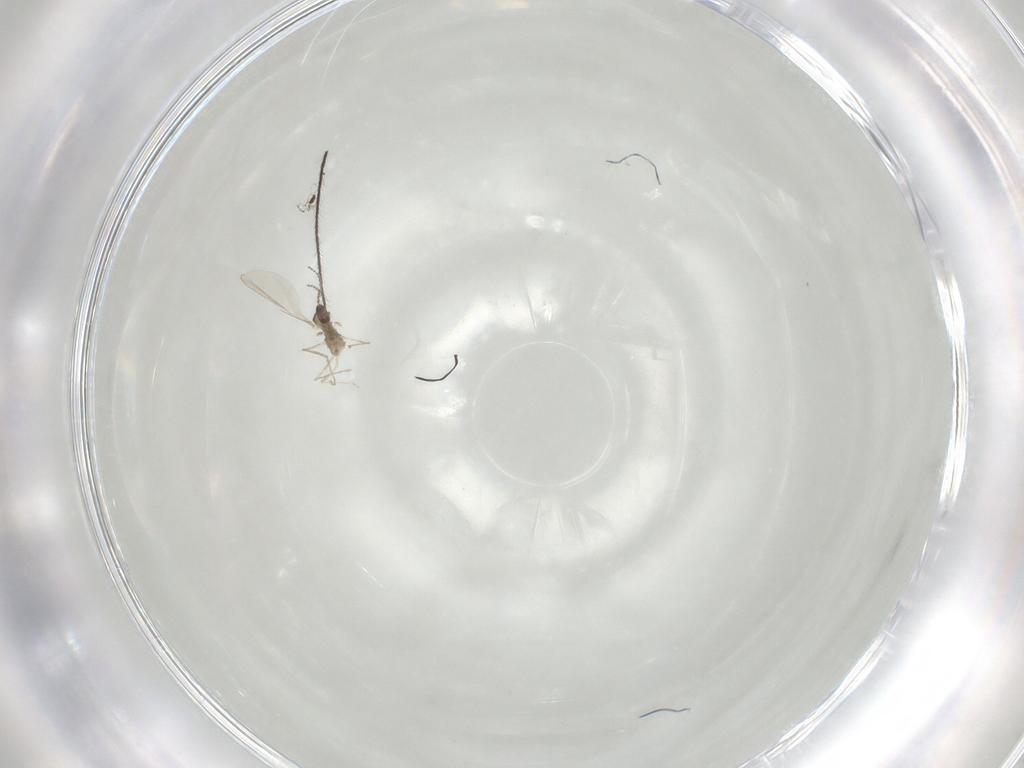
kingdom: Animalia
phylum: Arthropoda
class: Insecta
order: Diptera
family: Cecidomyiidae
